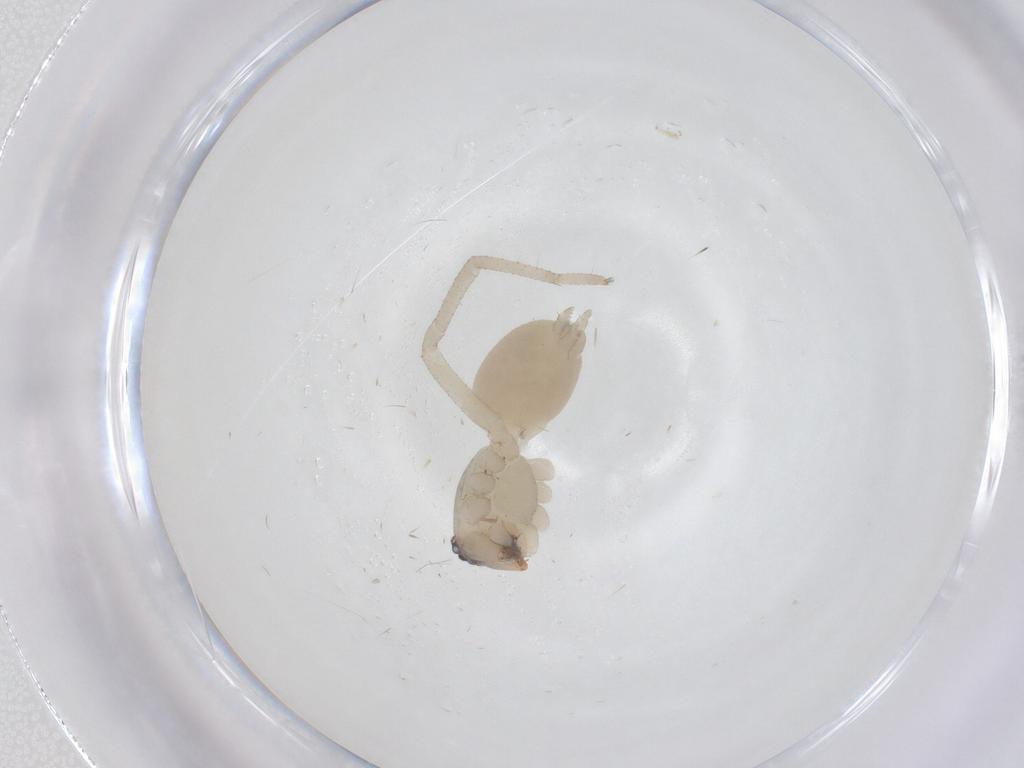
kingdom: Animalia
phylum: Arthropoda
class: Arachnida
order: Araneae
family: Cheiracanthiidae
